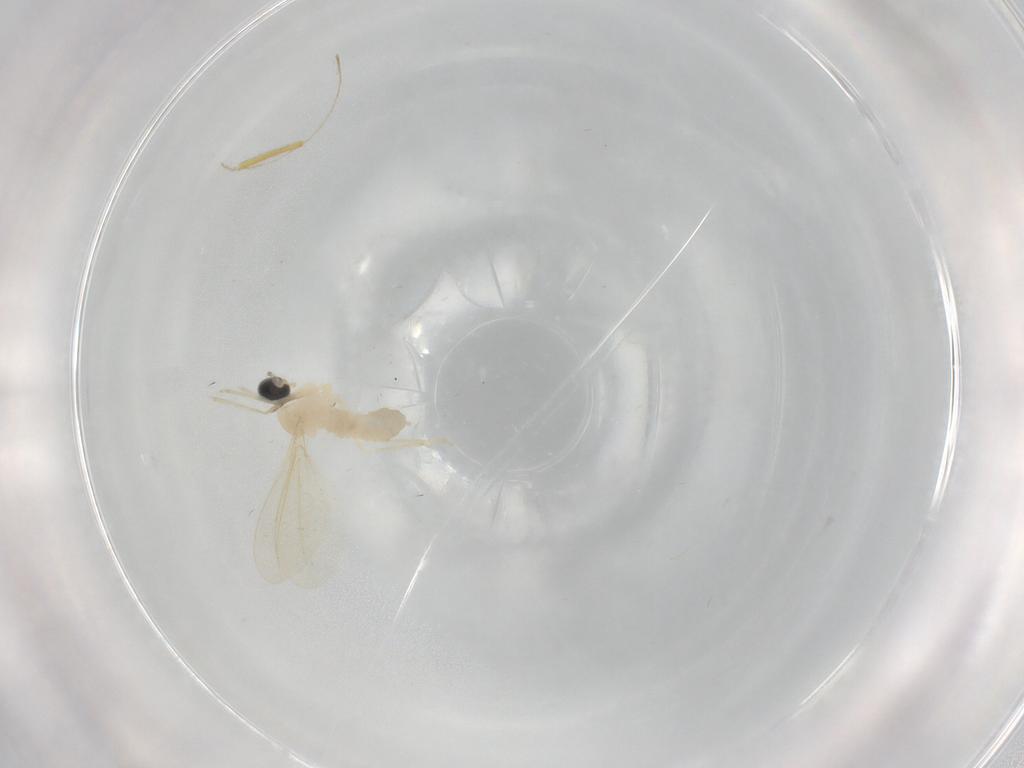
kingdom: Animalia
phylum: Arthropoda
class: Insecta
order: Diptera
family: Cecidomyiidae
